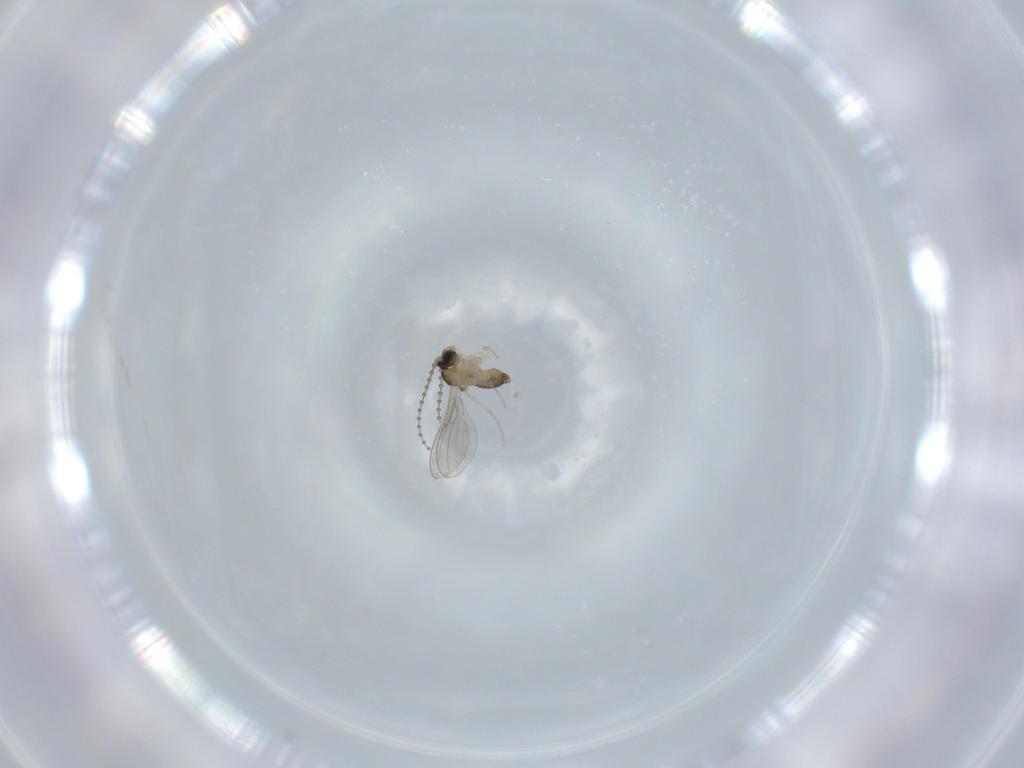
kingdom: Animalia
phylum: Arthropoda
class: Insecta
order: Diptera
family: Cecidomyiidae
